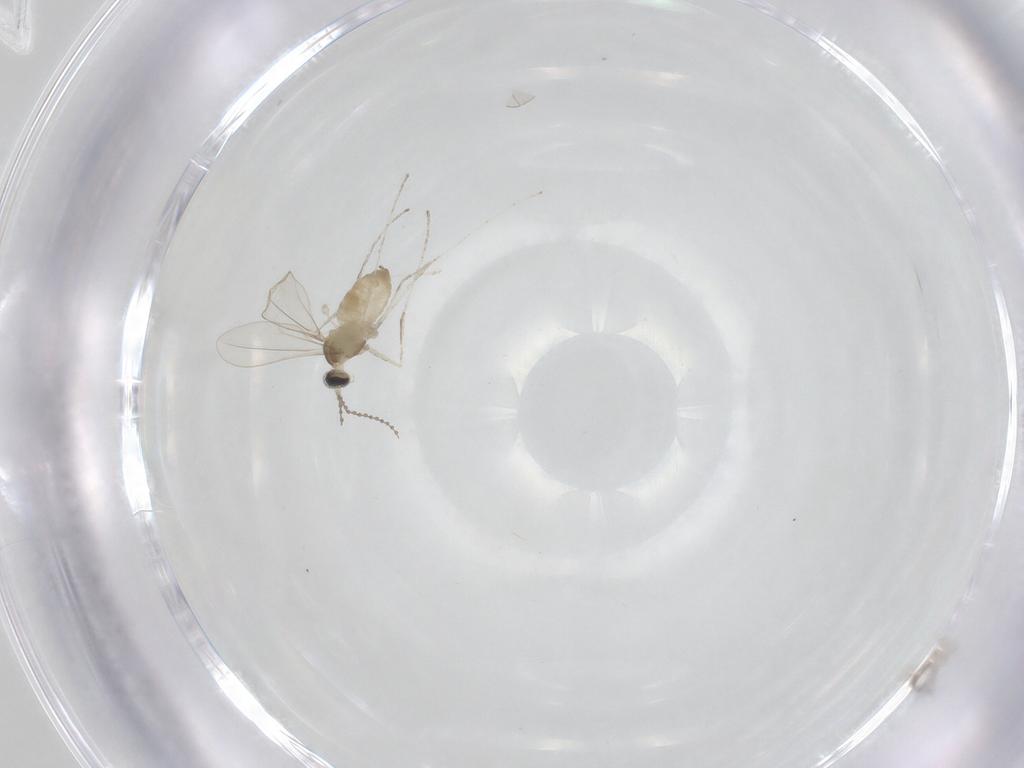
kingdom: Animalia
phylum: Arthropoda
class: Insecta
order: Diptera
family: Cecidomyiidae
